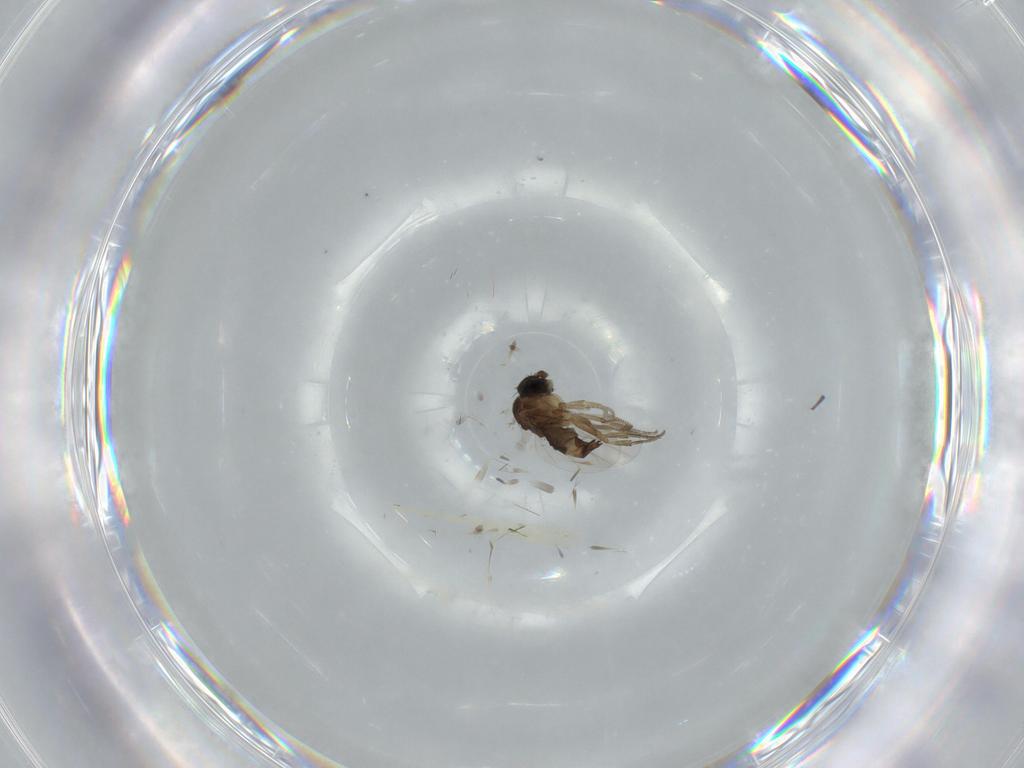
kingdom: Animalia
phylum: Arthropoda
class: Insecta
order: Diptera
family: Phoridae
